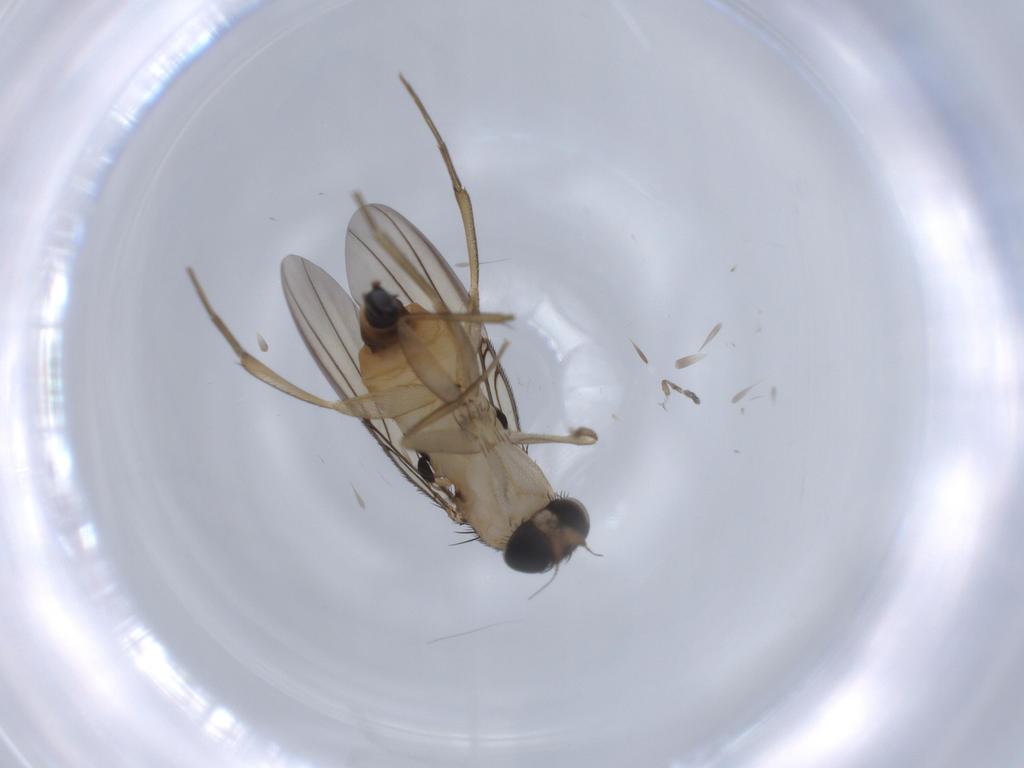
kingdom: Animalia
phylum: Arthropoda
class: Insecta
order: Diptera
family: Phoridae
